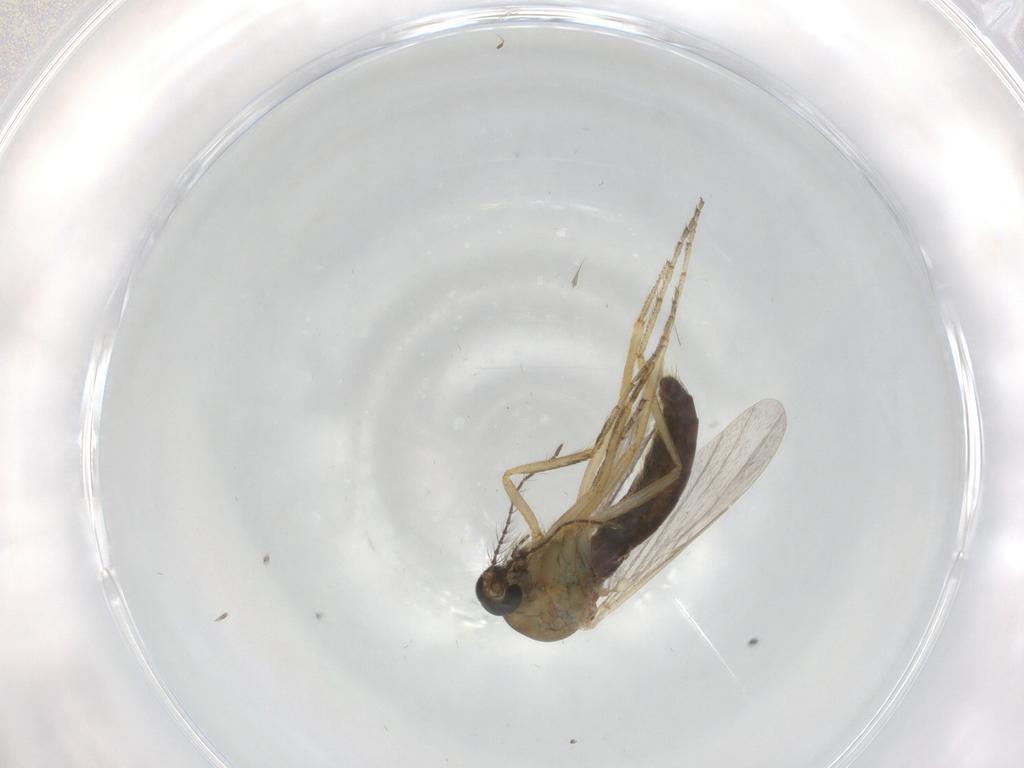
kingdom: Animalia
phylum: Arthropoda
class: Insecta
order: Diptera
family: Ceratopogonidae
